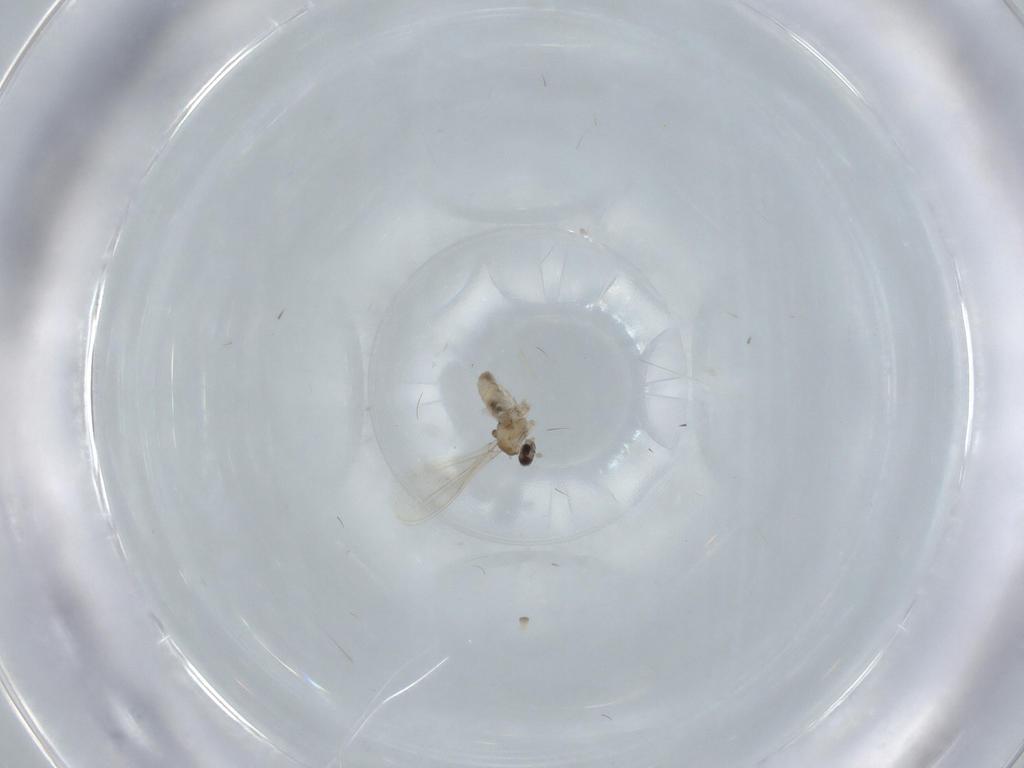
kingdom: Animalia
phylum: Arthropoda
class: Insecta
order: Diptera
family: Cecidomyiidae
